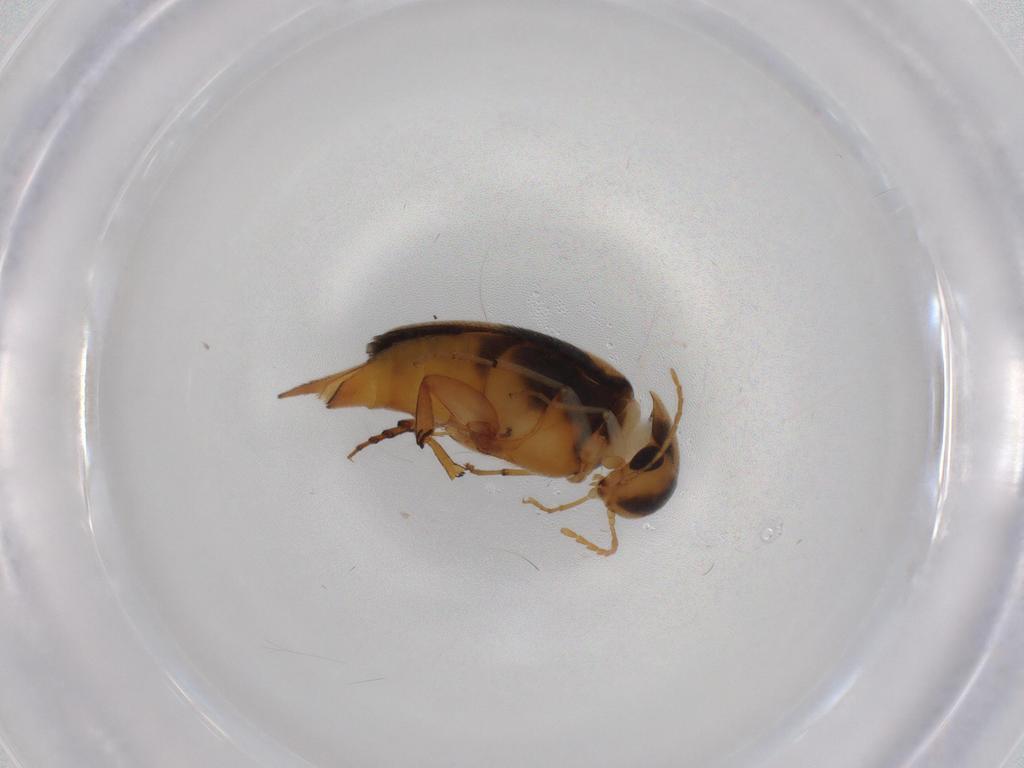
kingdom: Animalia
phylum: Arthropoda
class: Insecta
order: Coleoptera
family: Mordellidae
